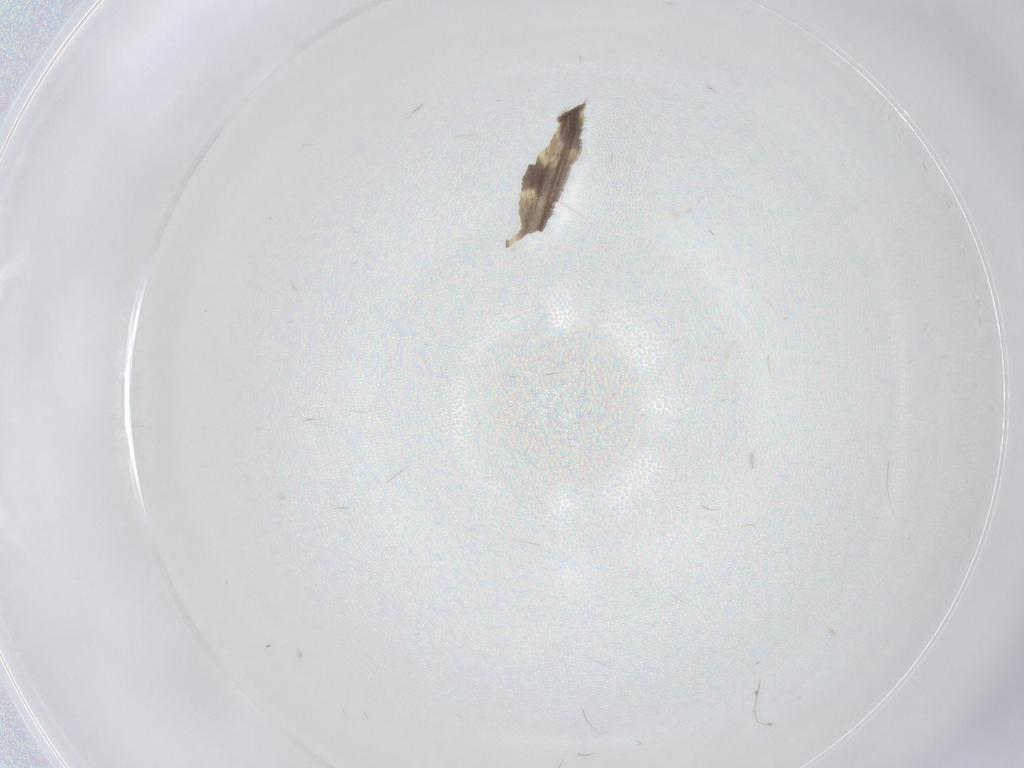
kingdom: Animalia
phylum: Arthropoda
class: Insecta
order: Diptera
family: Limoniidae
